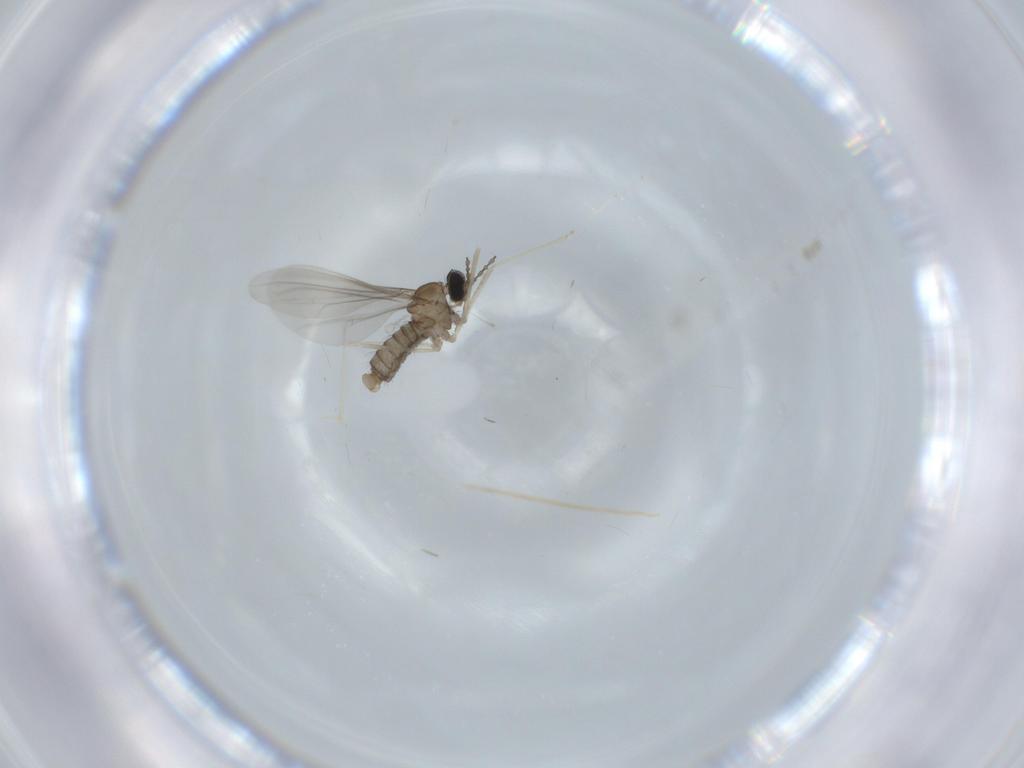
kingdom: Animalia
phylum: Arthropoda
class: Insecta
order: Diptera
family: Cecidomyiidae
